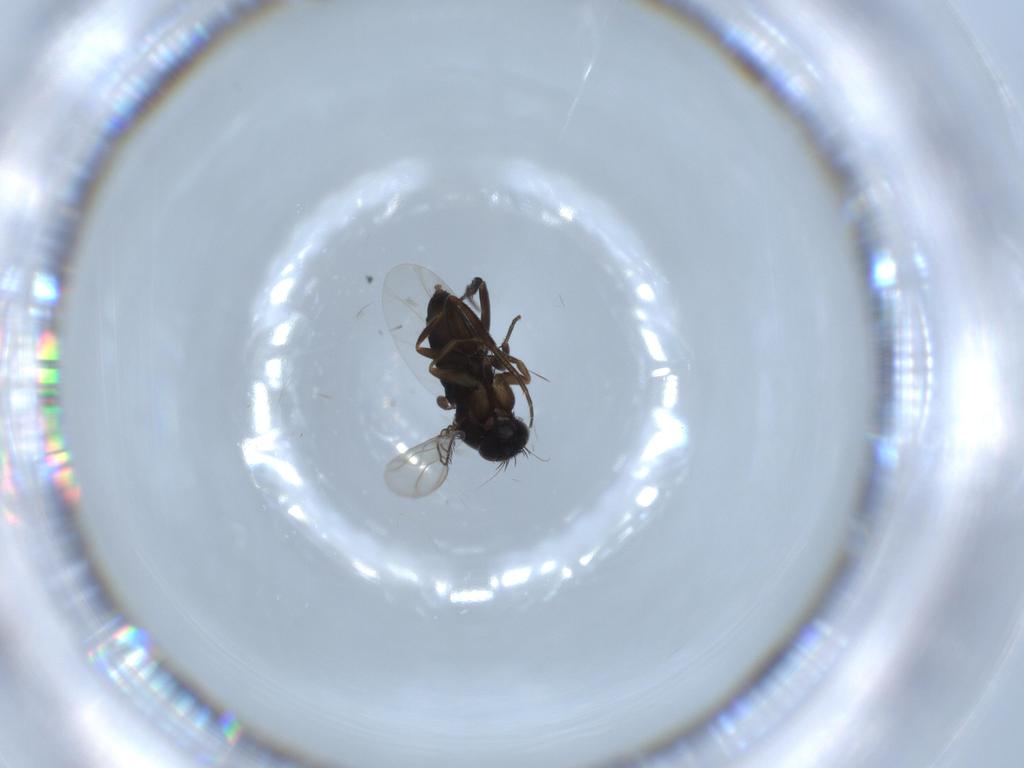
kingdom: Animalia
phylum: Arthropoda
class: Insecta
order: Diptera
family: Phoridae
